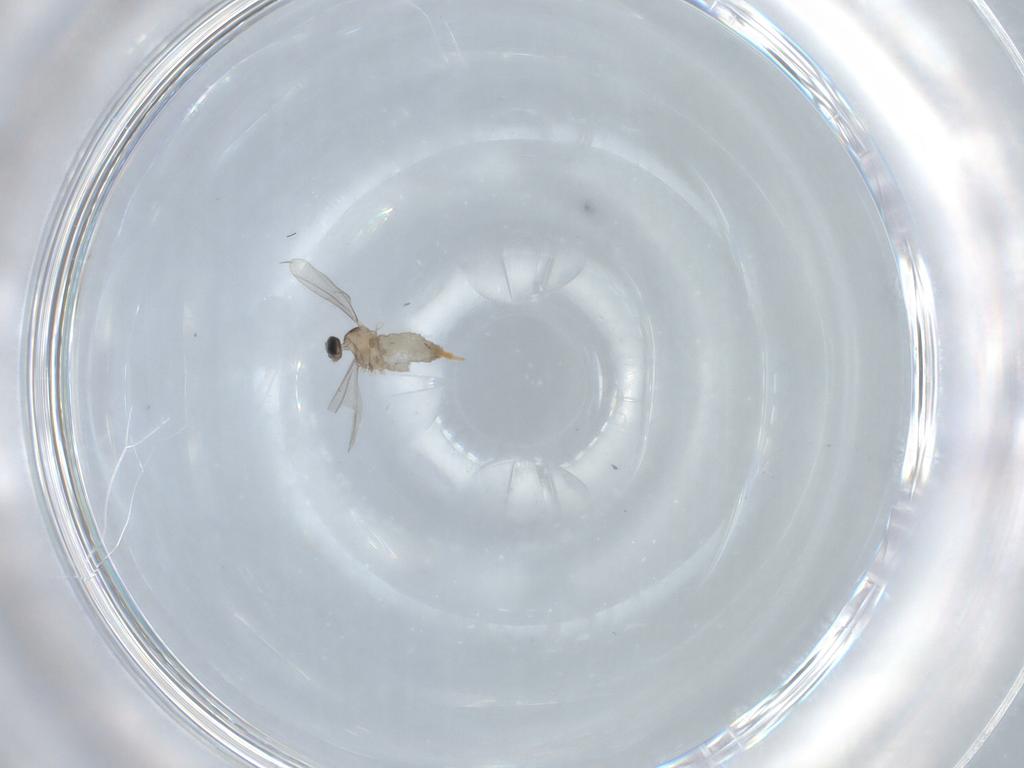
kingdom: Animalia
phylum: Arthropoda
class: Insecta
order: Diptera
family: Cecidomyiidae
